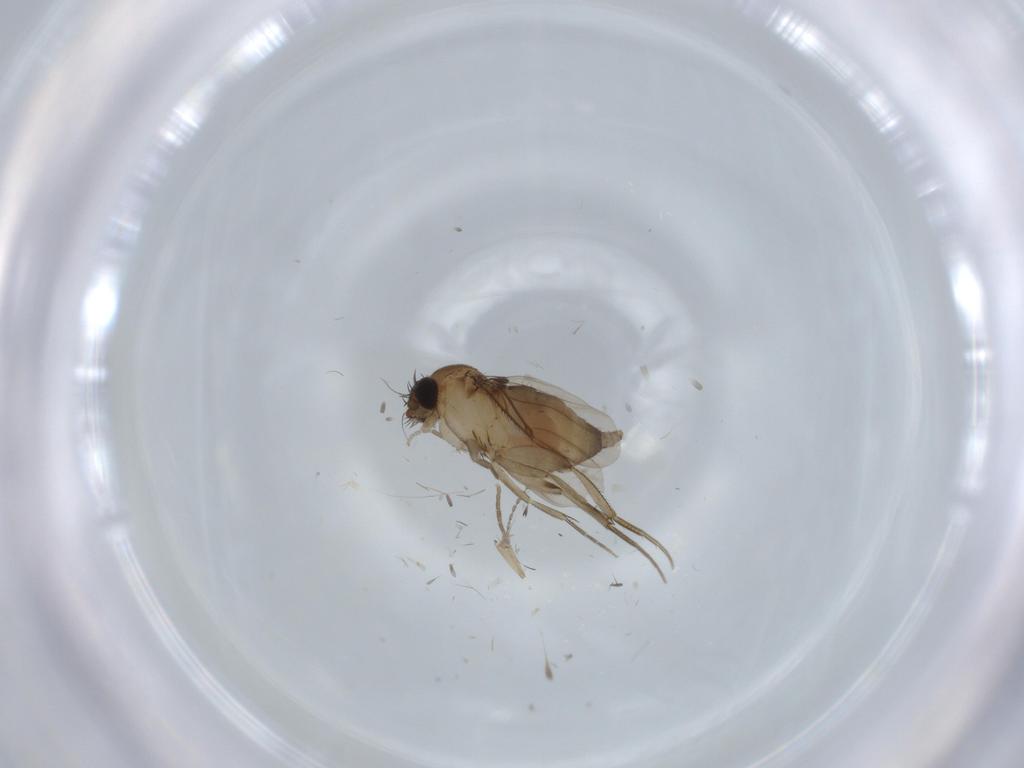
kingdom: Animalia
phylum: Arthropoda
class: Insecta
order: Diptera
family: Phoridae
